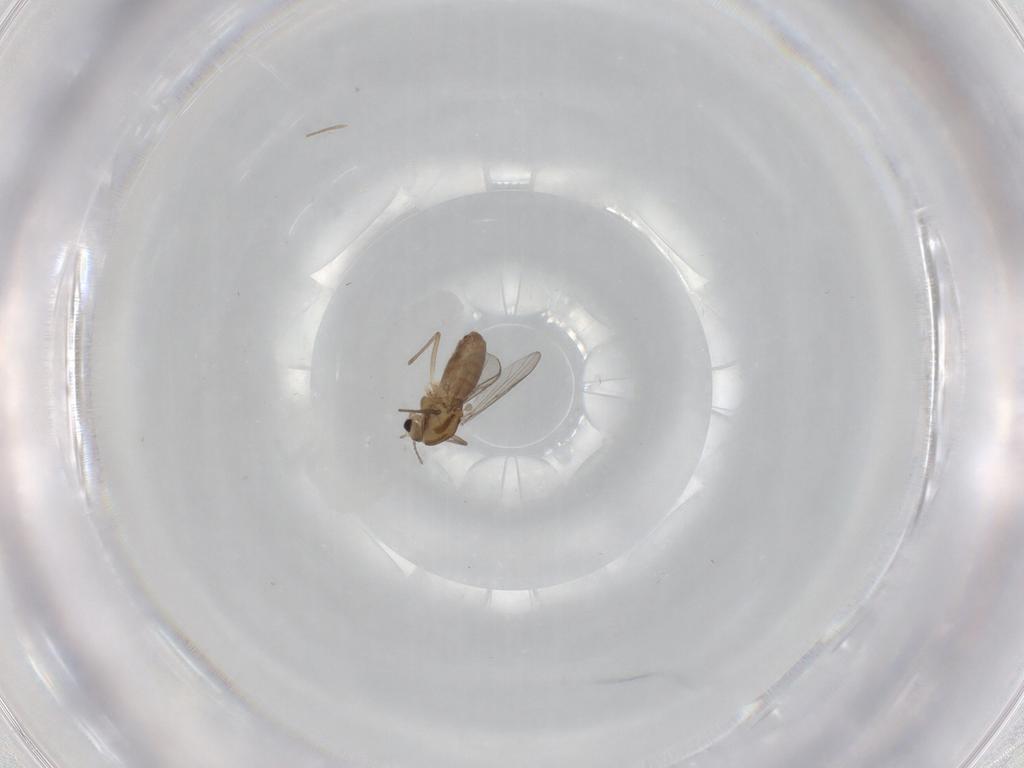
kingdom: Animalia
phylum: Arthropoda
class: Insecta
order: Diptera
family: Chironomidae
